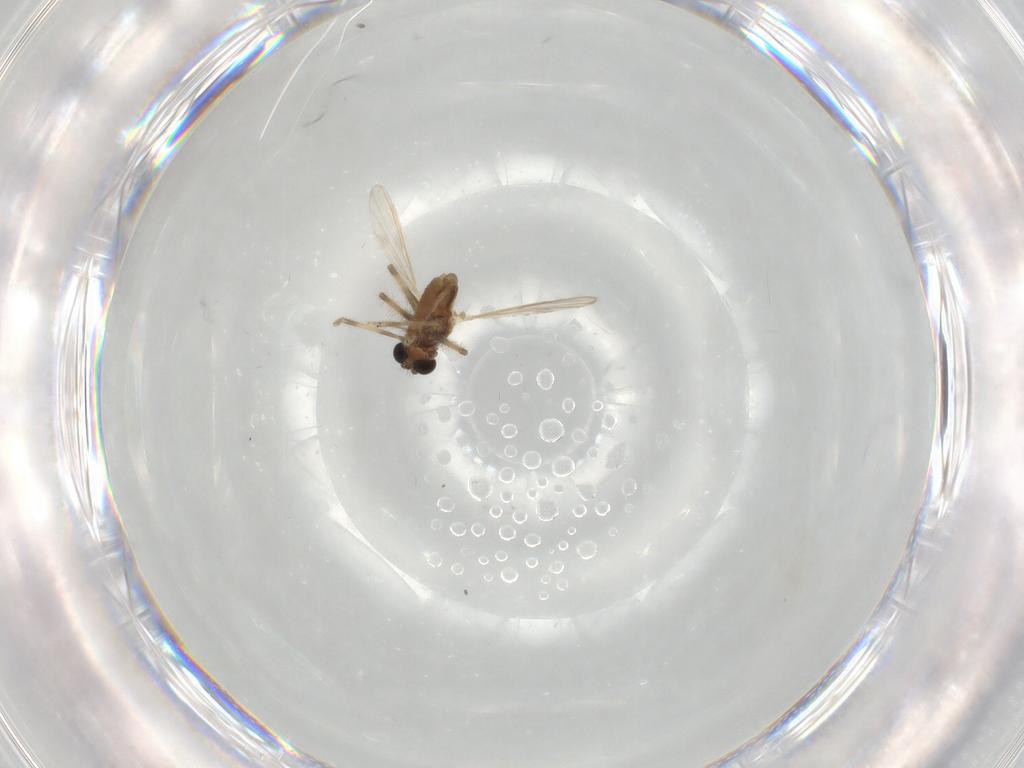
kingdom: Animalia
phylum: Arthropoda
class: Insecta
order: Diptera
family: Chironomidae
